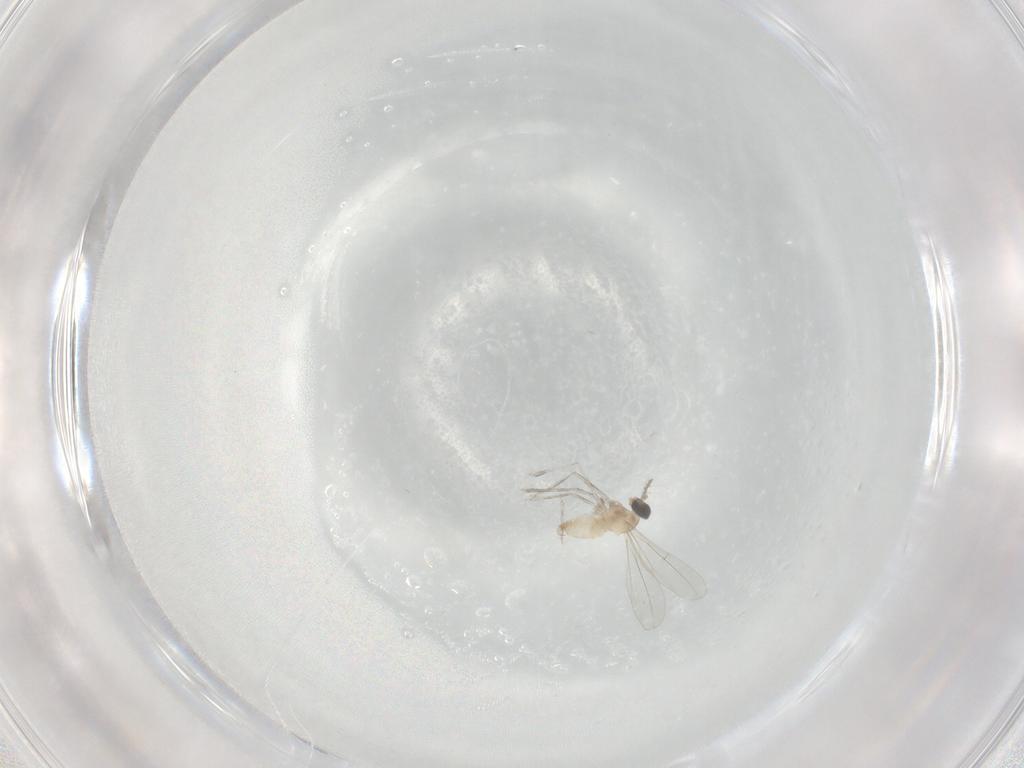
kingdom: Animalia
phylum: Arthropoda
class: Insecta
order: Diptera
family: Cecidomyiidae
